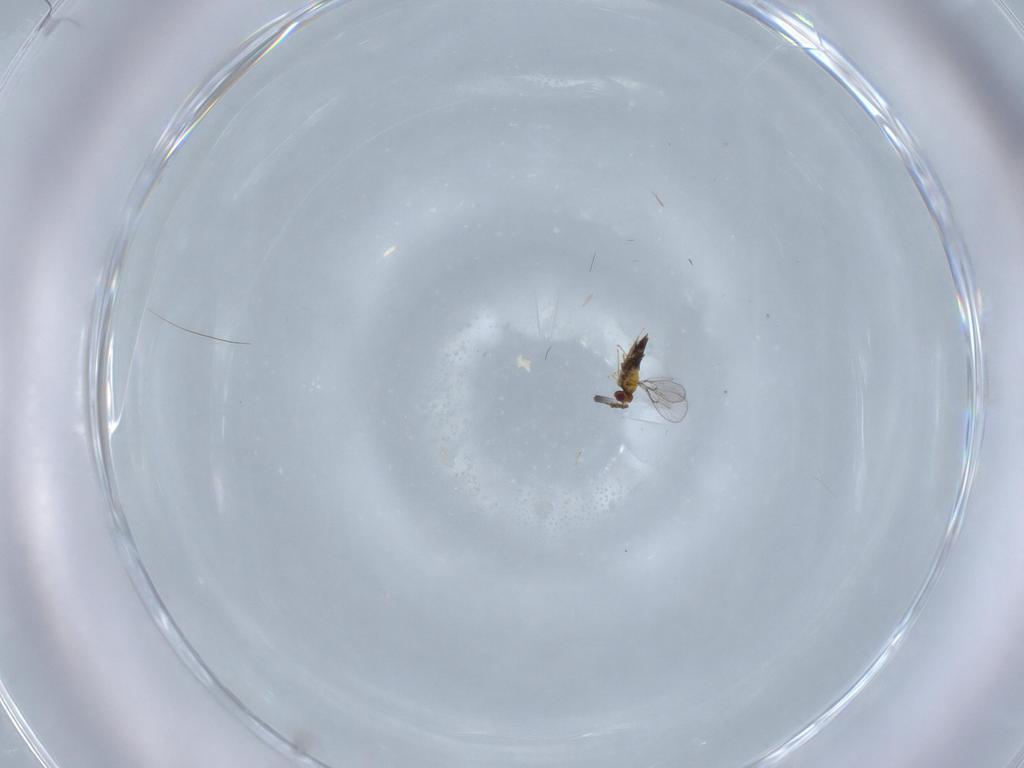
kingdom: Animalia
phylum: Arthropoda
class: Insecta
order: Hymenoptera
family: Trichogrammatidae
